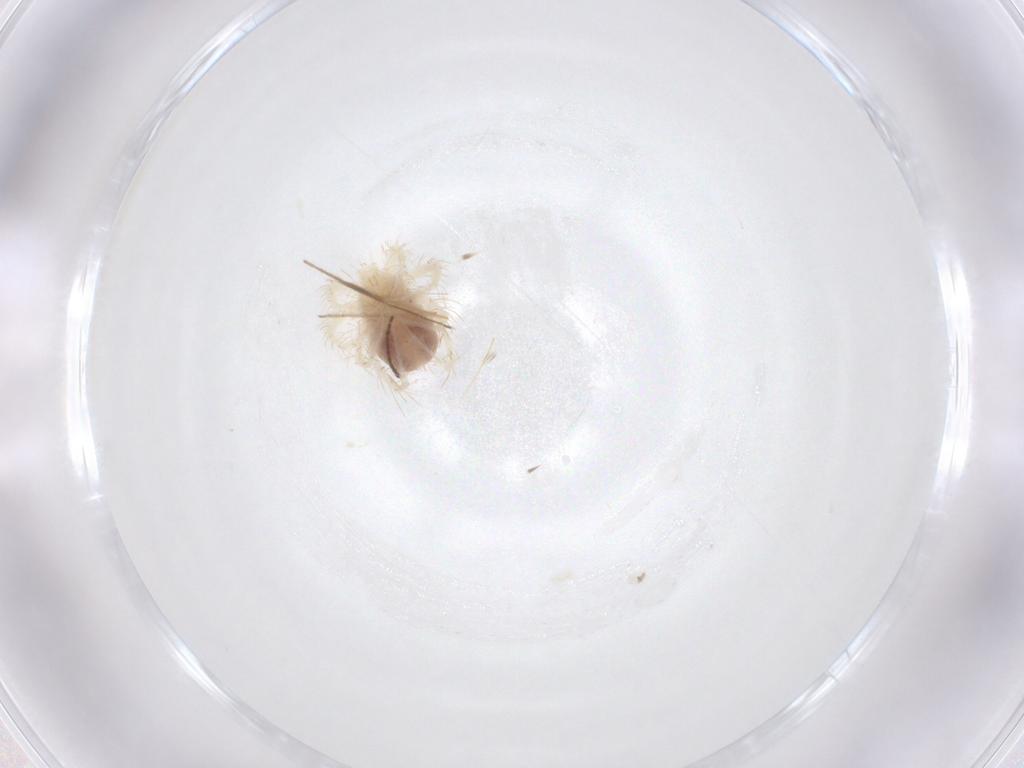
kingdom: Animalia
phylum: Arthropoda
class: Arachnida
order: Trombidiformes
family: Anystidae
